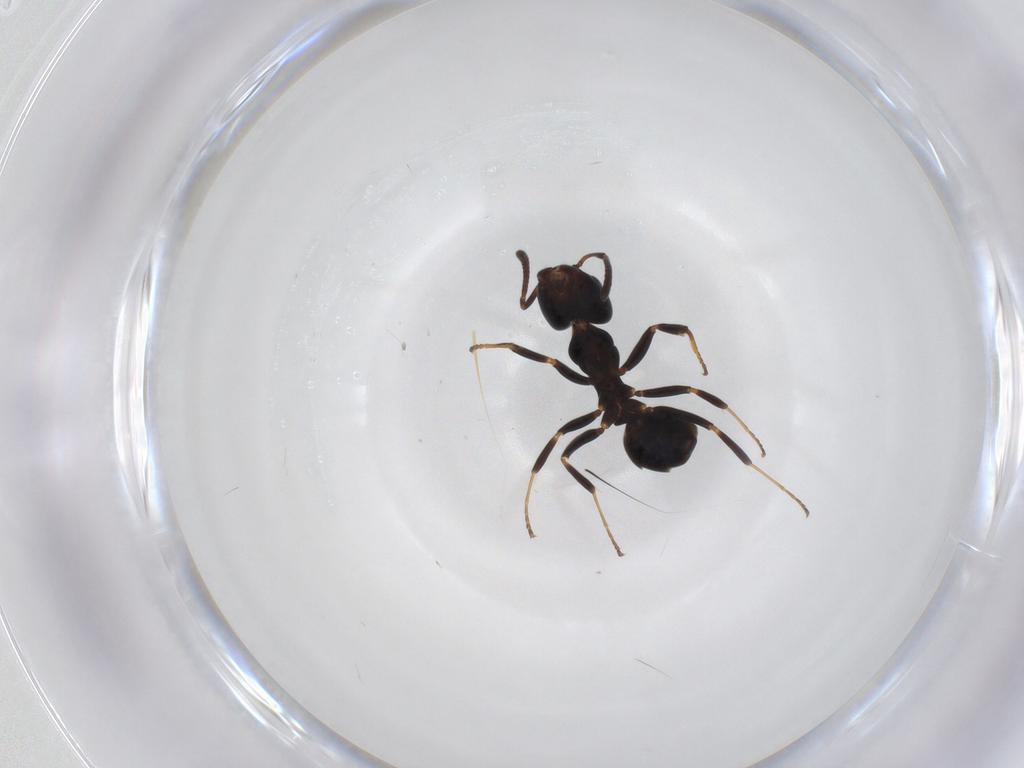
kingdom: Animalia
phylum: Arthropoda
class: Insecta
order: Hymenoptera
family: Formicidae
